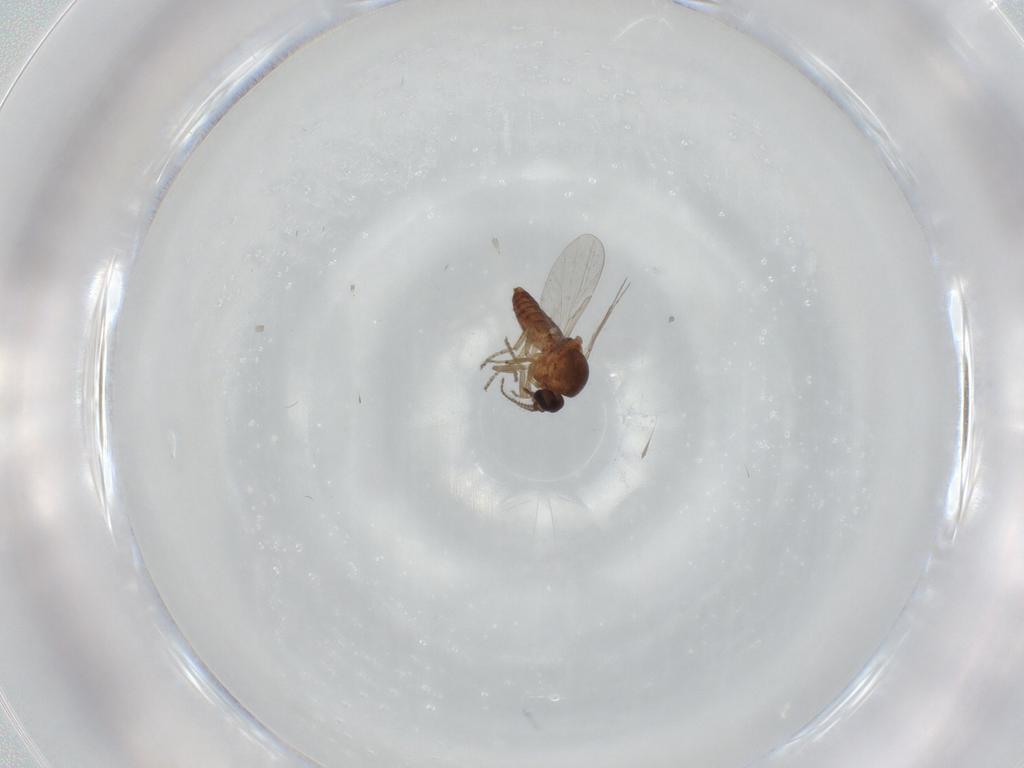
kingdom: Animalia
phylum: Arthropoda
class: Insecta
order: Diptera
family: Ceratopogonidae
